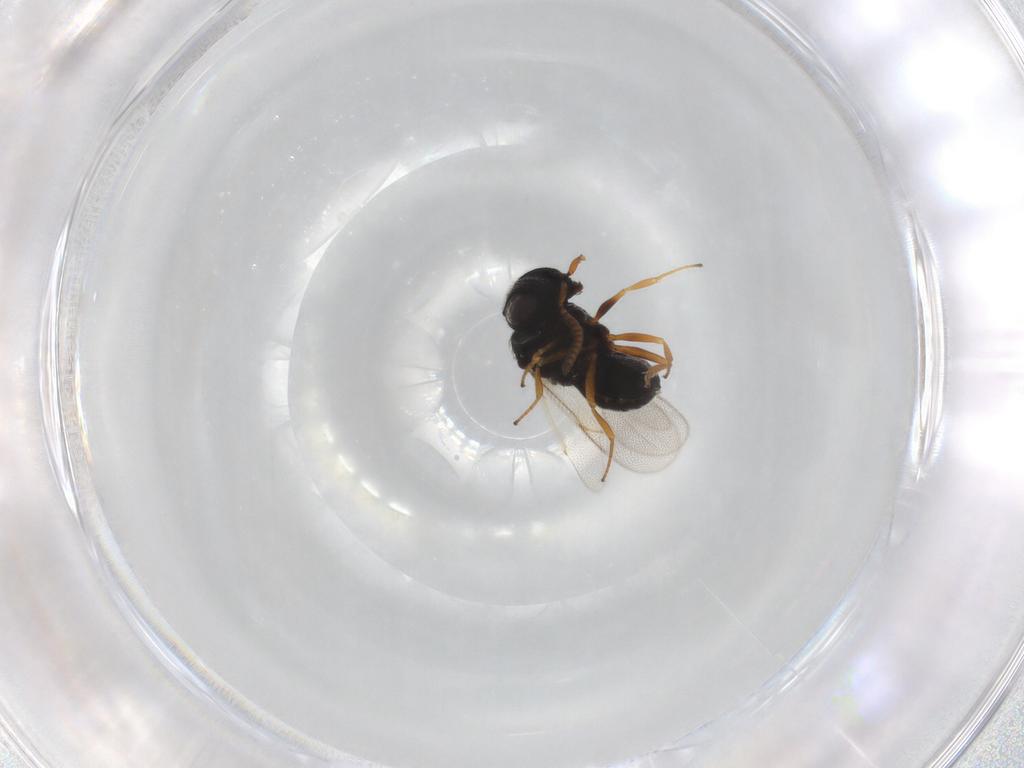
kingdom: Animalia
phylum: Arthropoda
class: Insecta
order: Hymenoptera
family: Scelionidae
